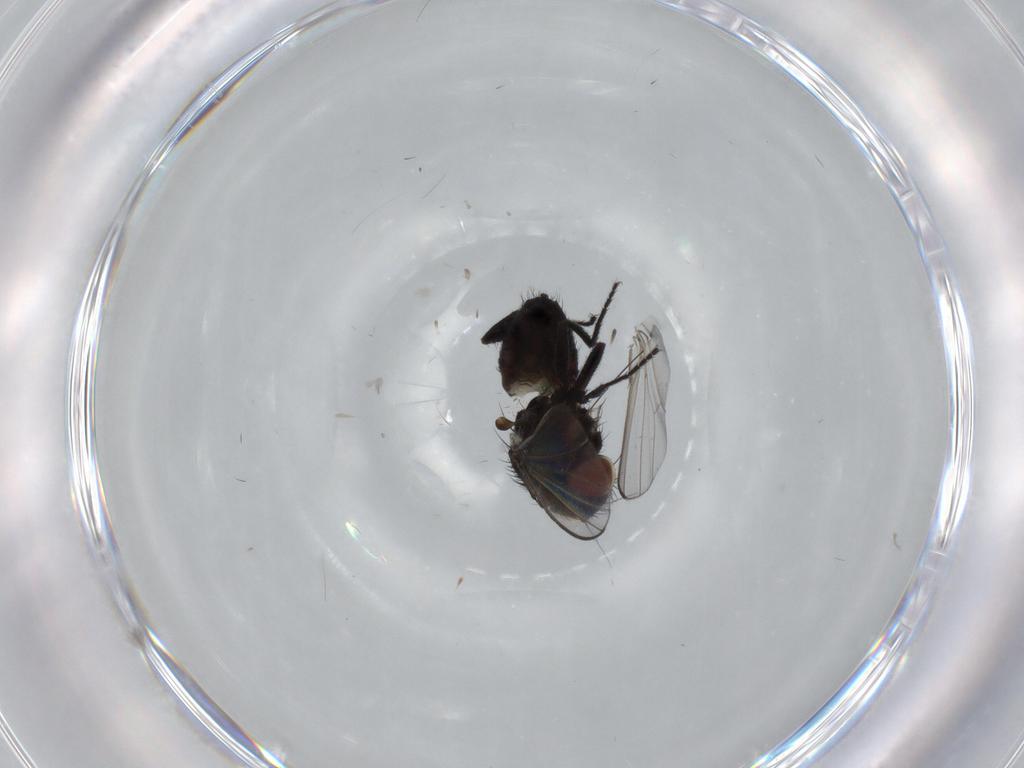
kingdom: Animalia
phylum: Arthropoda
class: Insecta
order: Diptera
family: Milichiidae
